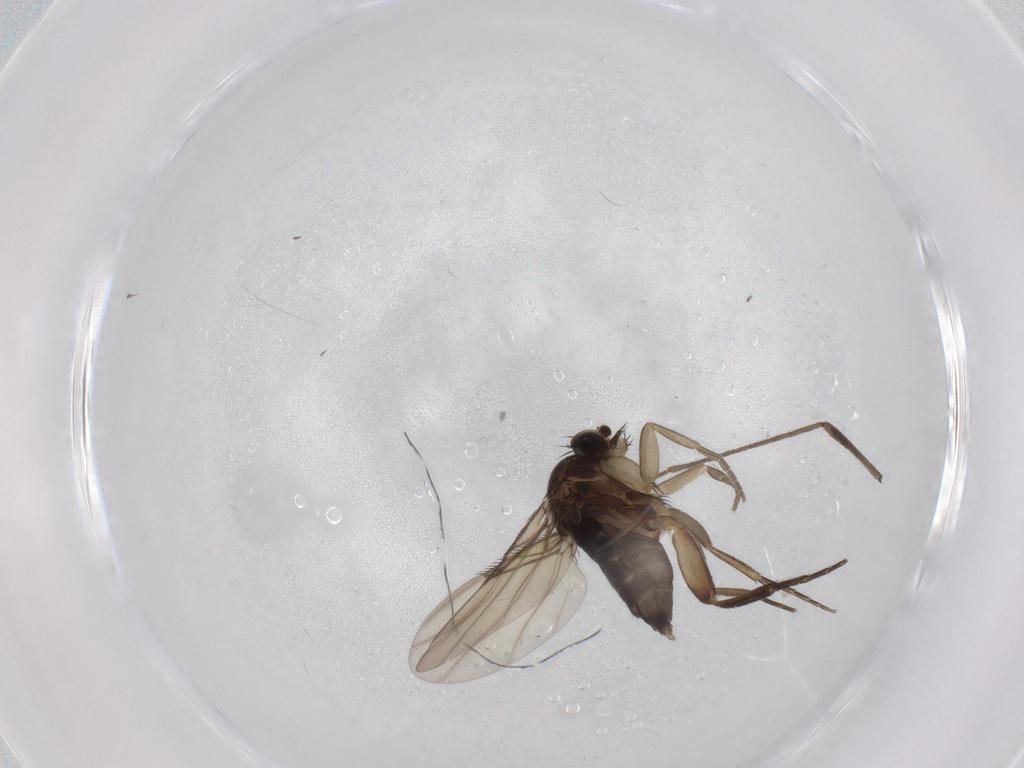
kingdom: Animalia
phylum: Arthropoda
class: Insecta
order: Diptera
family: Phoridae
